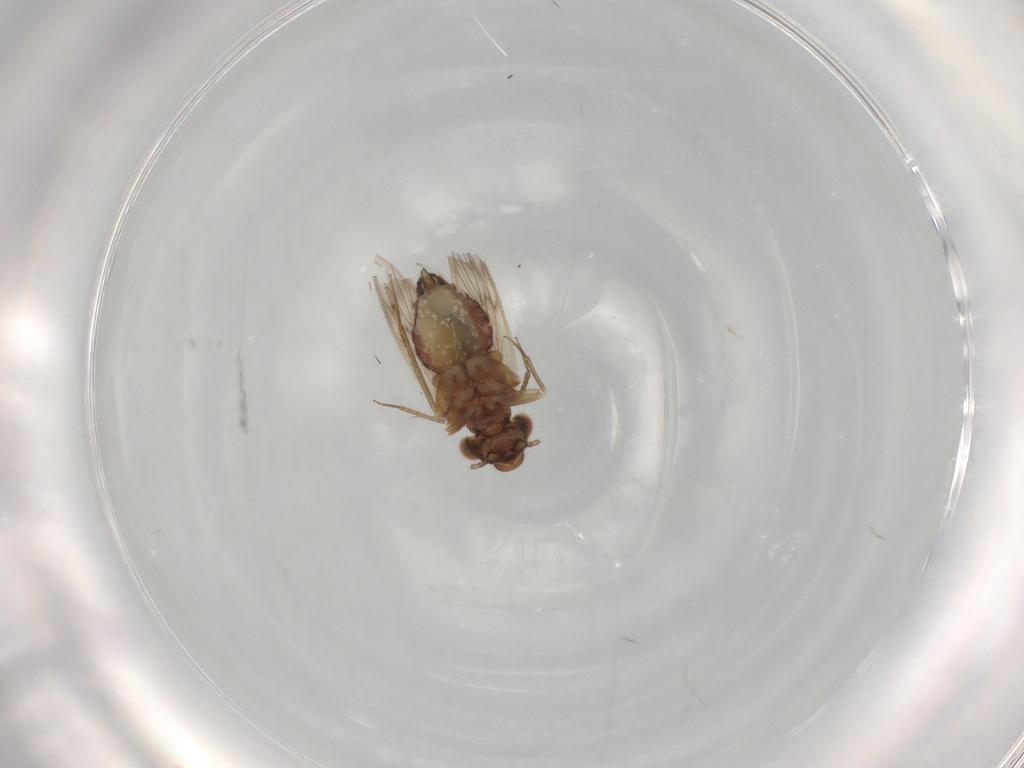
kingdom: Animalia
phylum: Arthropoda
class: Insecta
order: Psocodea
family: Lepidopsocidae
